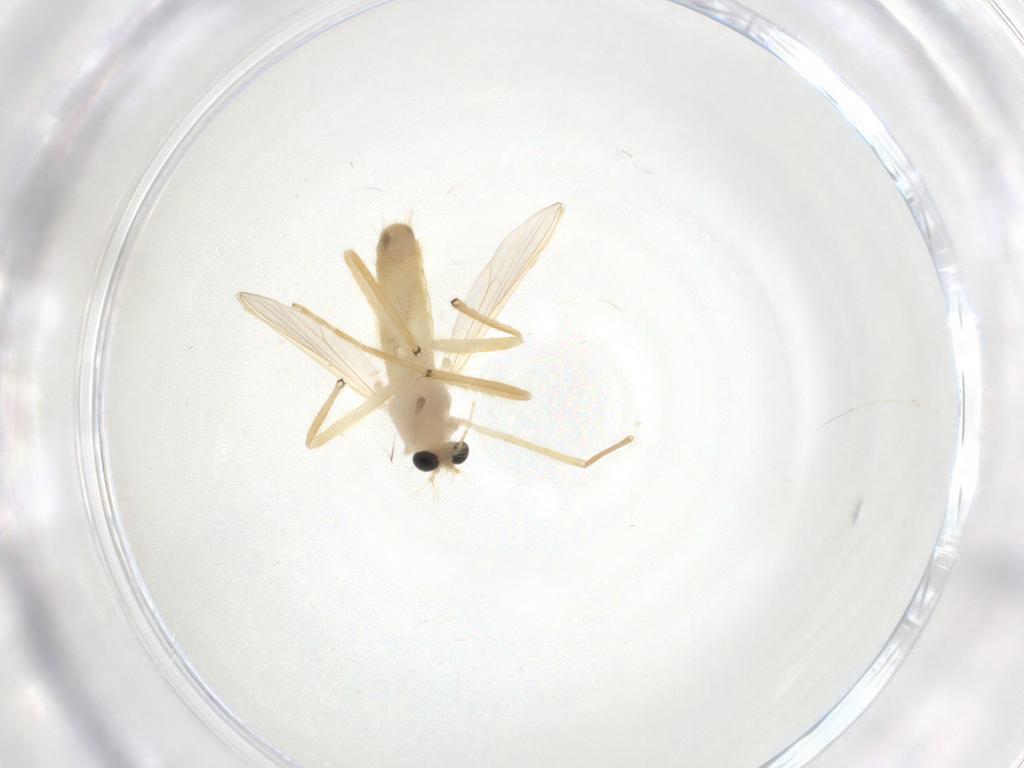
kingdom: Animalia
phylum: Arthropoda
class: Insecta
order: Diptera
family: Chironomidae
